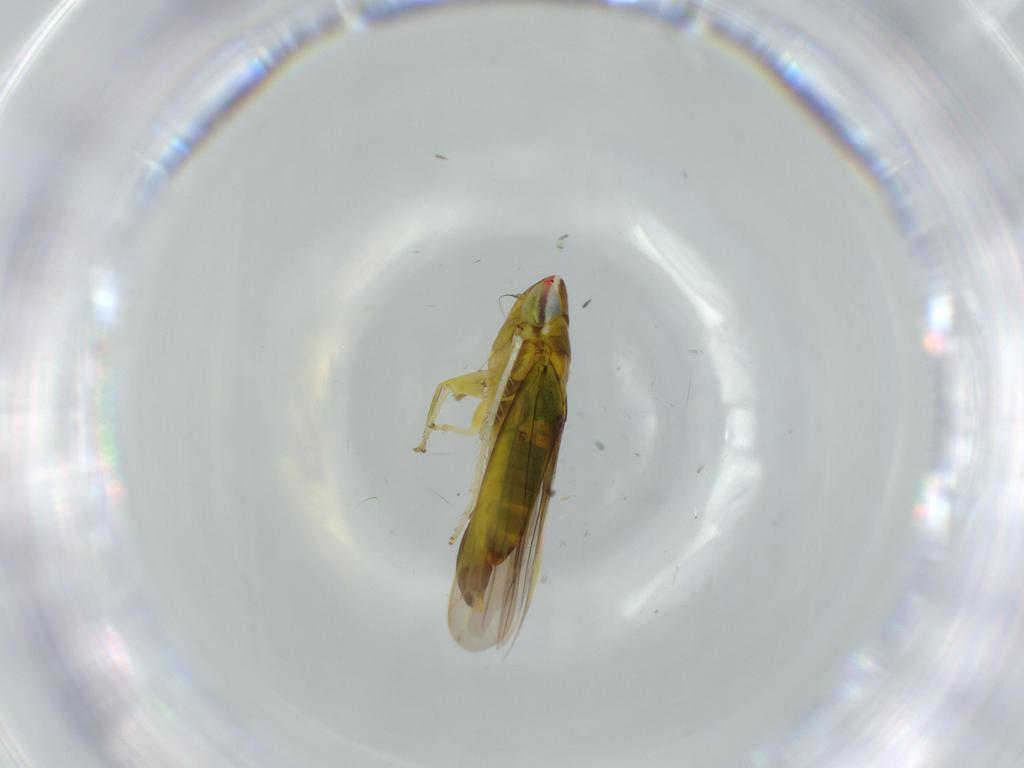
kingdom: Animalia
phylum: Arthropoda
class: Insecta
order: Hemiptera
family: Cicadellidae
